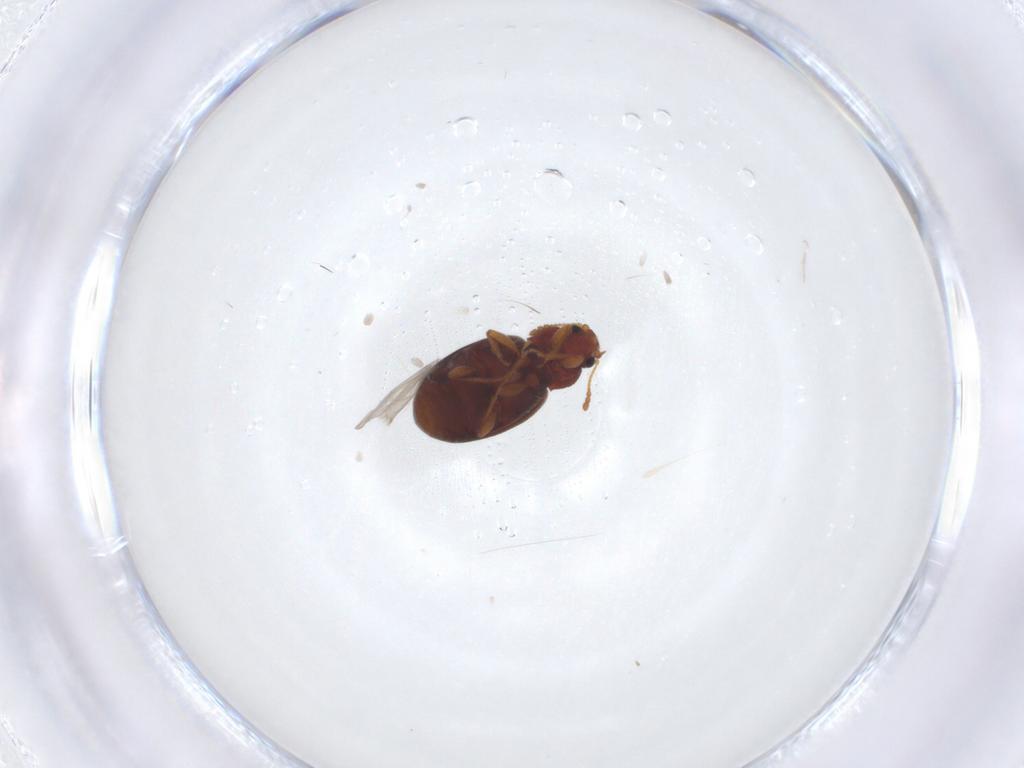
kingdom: Animalia
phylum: Arthropoda
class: Insecta
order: Coleoptera
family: Latridiidae
